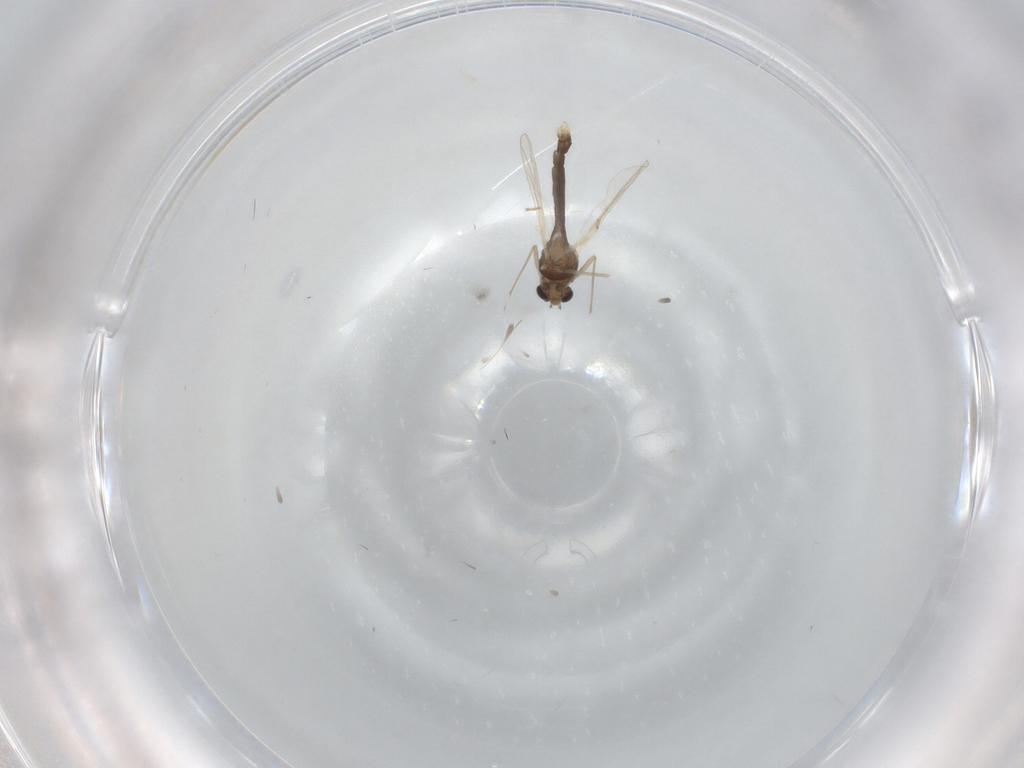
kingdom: Animalia
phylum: Arthropoda
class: Insecta
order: Diptera
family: Chironomidae
